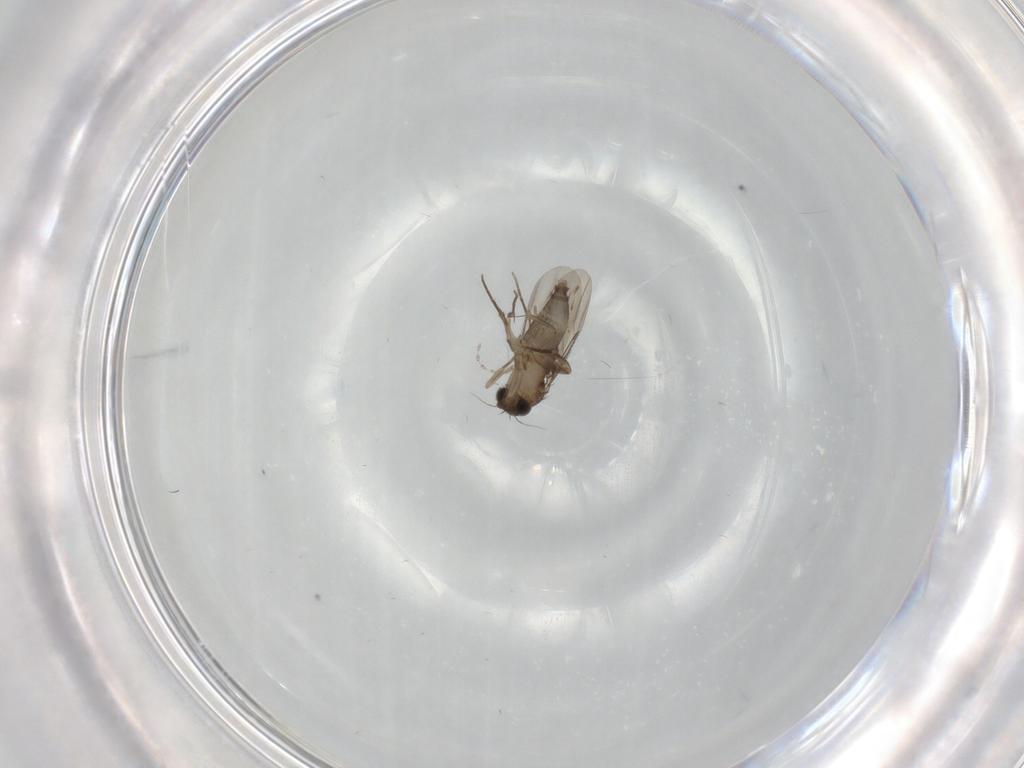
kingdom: Animalia
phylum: Arthropoda
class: Insecta
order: Diptera
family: Phoridae
